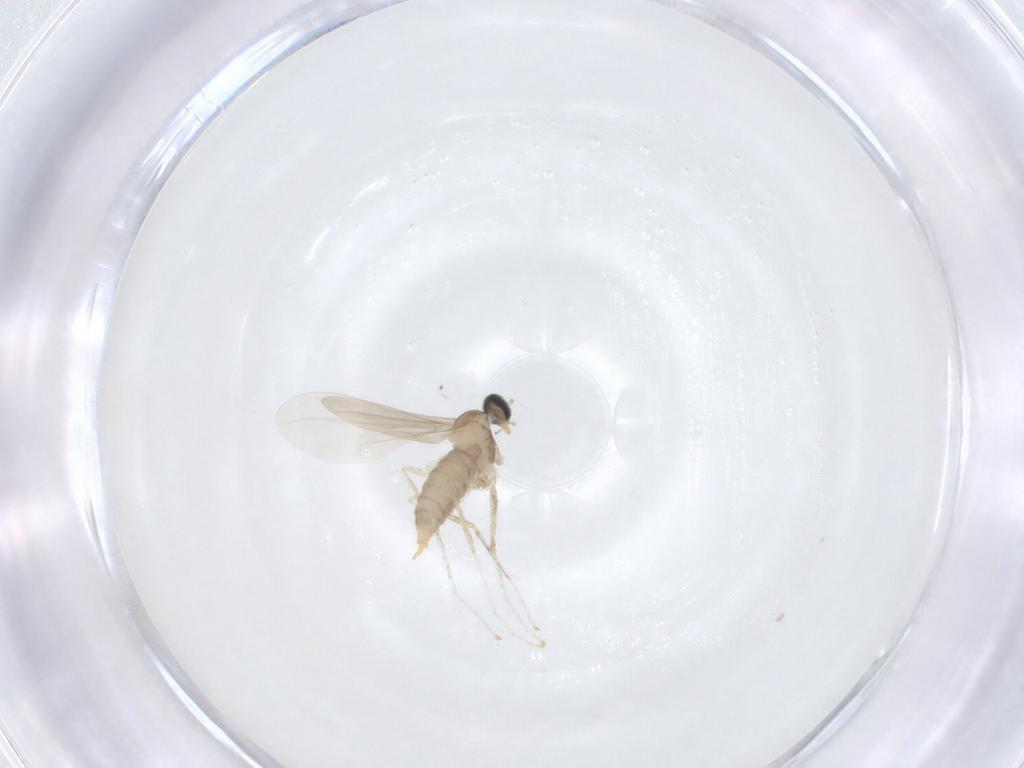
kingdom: Animalia
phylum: Arthropoda
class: Insecta
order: Diptera
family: Cecidomyiidae
